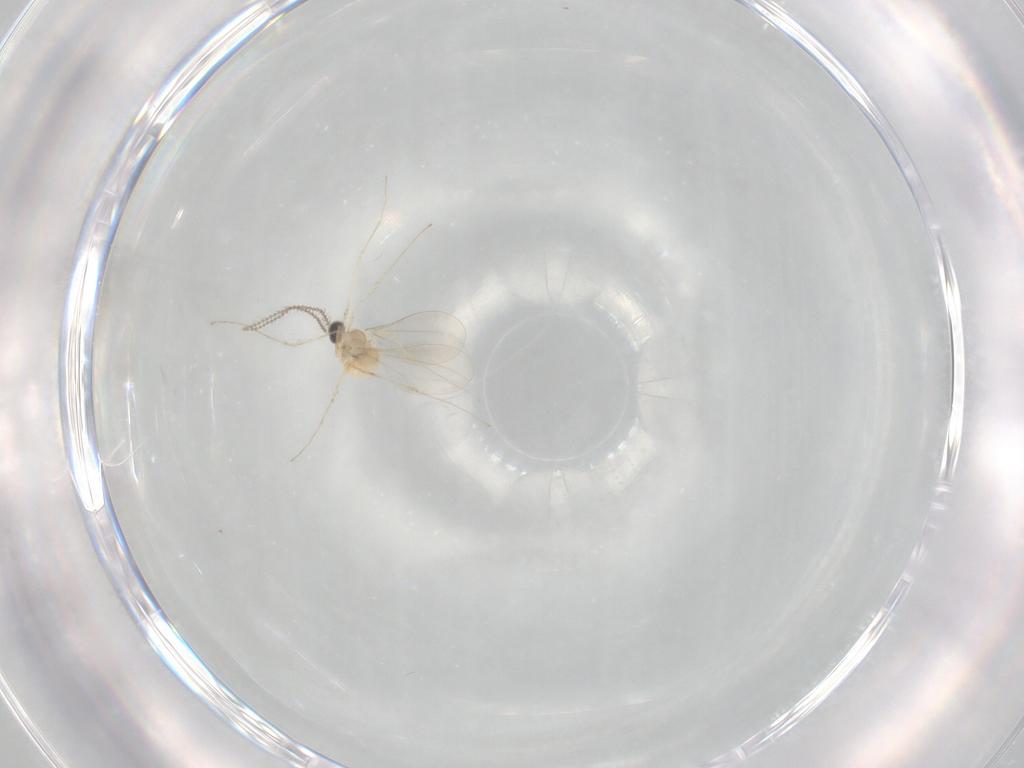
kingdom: Animalia
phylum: Arthropoda
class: Insecta
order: Diptera
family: Cecidomyiidae
